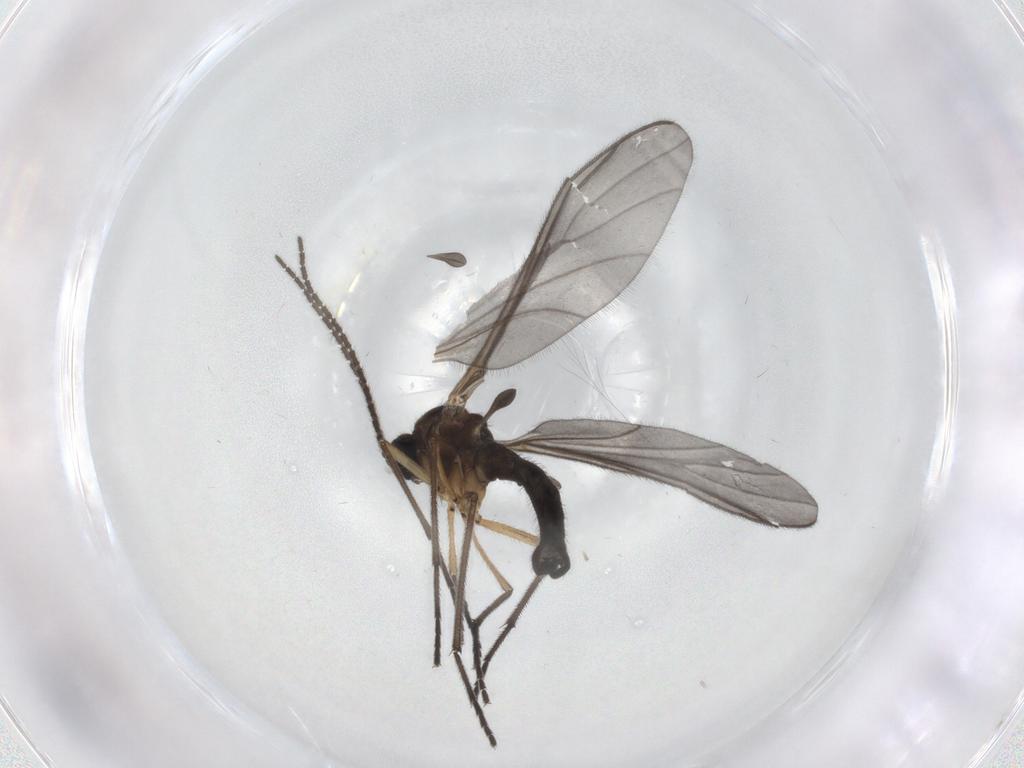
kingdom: Animalia
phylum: Arthropoda
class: Insecta
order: Diptera
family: Sciaridae
